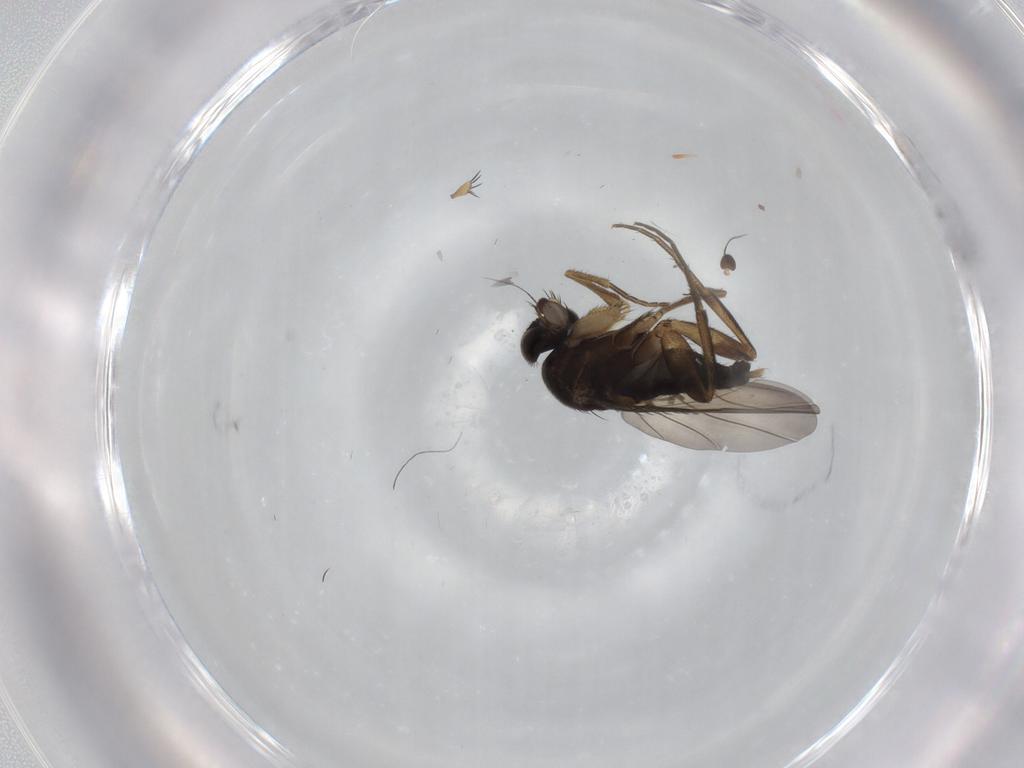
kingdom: Animalia
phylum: Arthropoda
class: Insecta
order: Diptera
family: Phoridae
